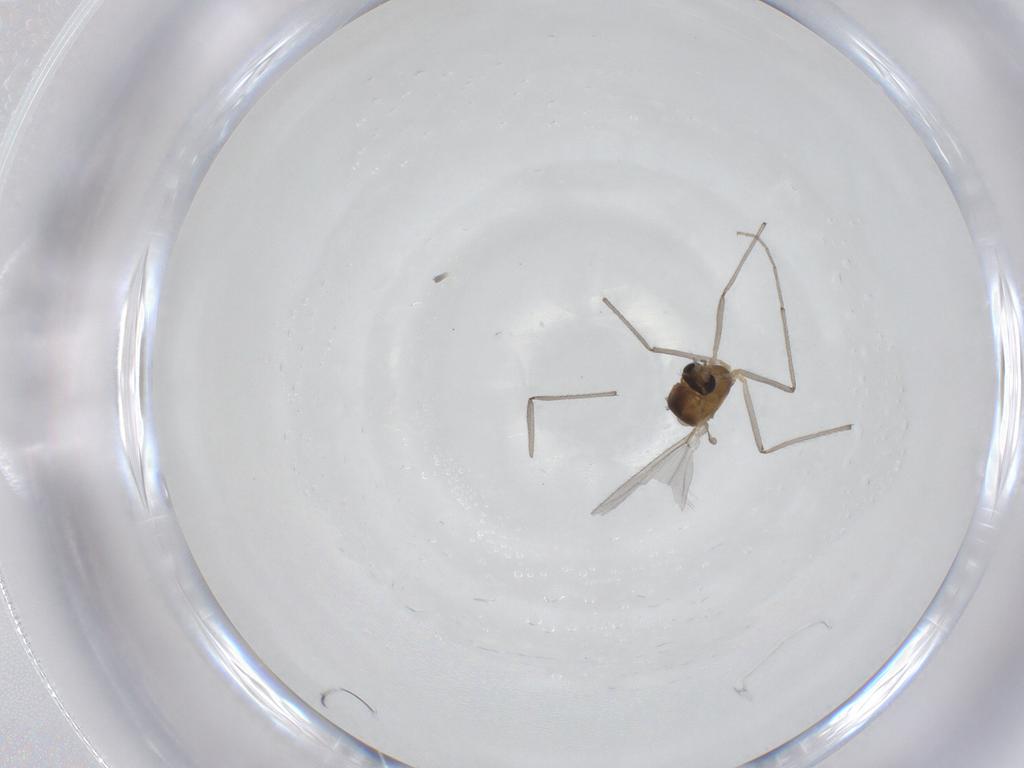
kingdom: Animalia
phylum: Arthropoda
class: Insecta
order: Diptera
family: Chironomidae
